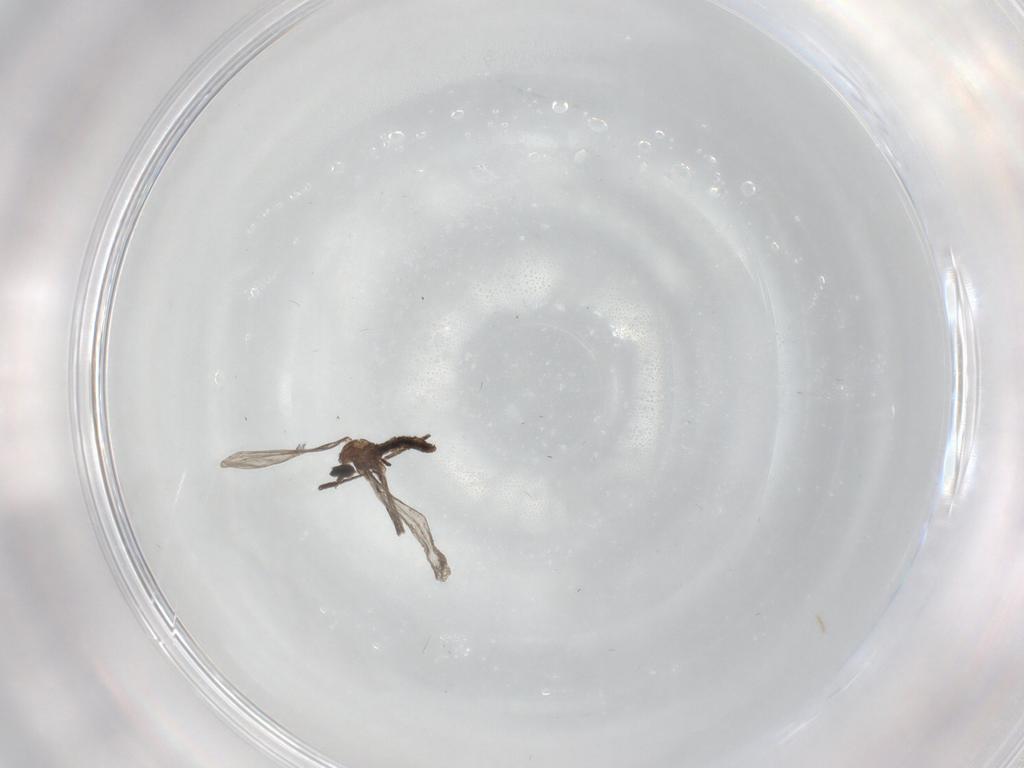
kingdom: Animalia
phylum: Arthropoda
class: Insecta
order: Diptera
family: Cecidomyiidae
